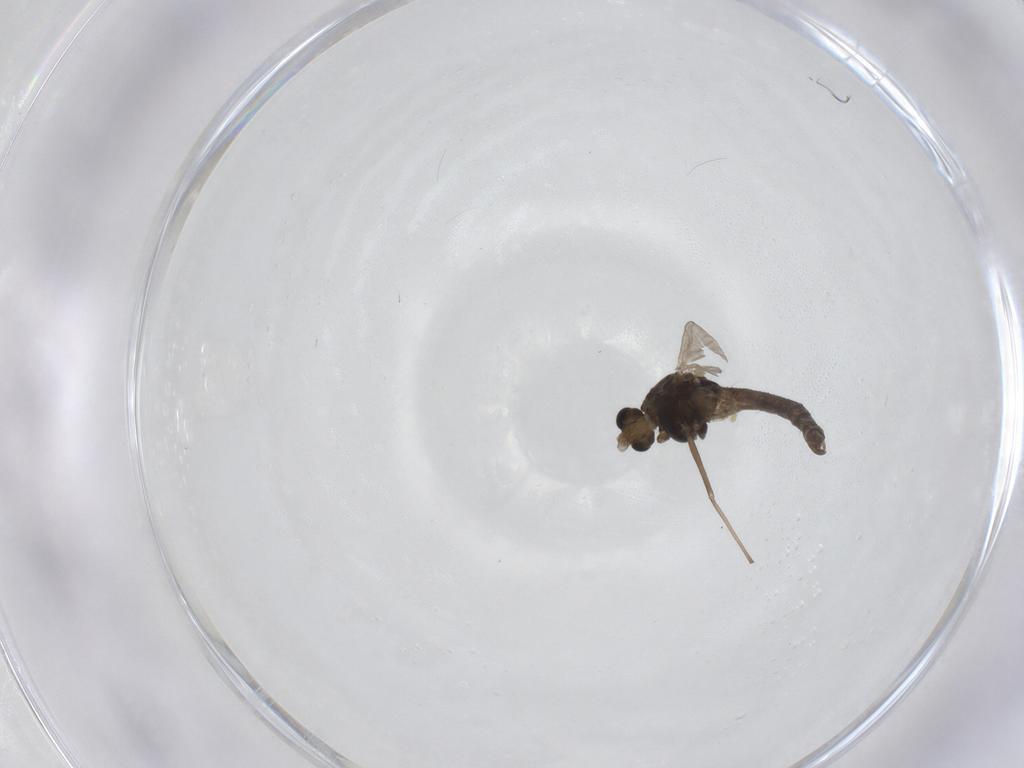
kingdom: Animalia
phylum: Arthropoda
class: Insecta
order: Diptera
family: Chironomidae
